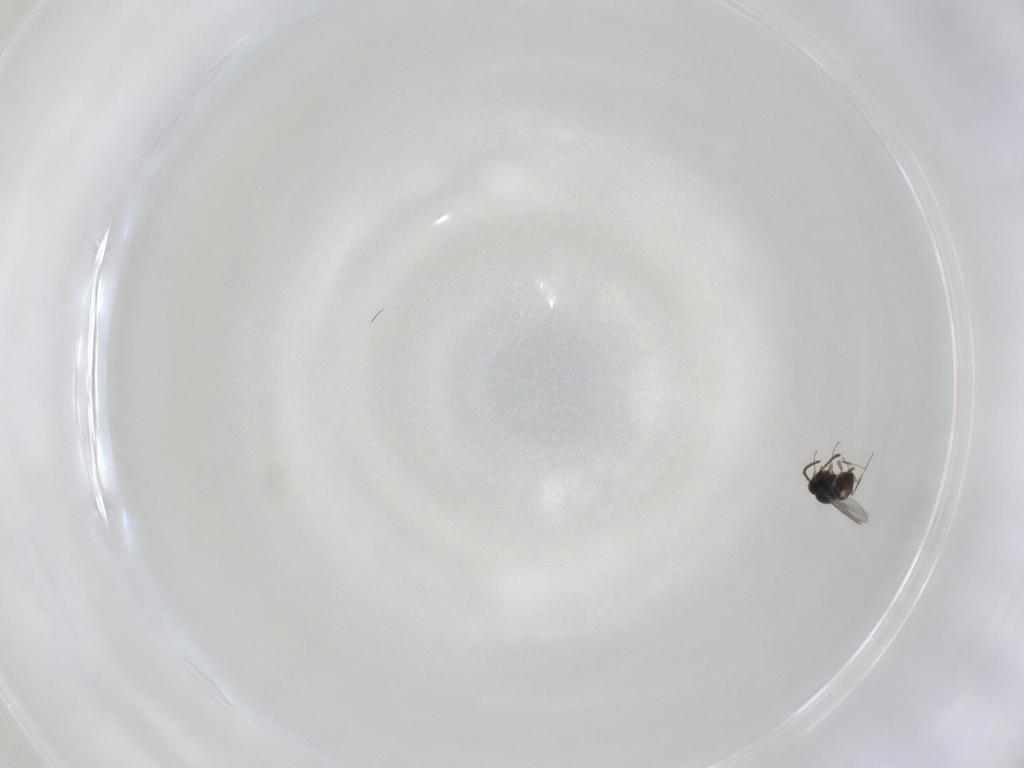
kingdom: Animalia
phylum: Arthropoda
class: Insecta
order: Hymenoptera
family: Scelionidae
